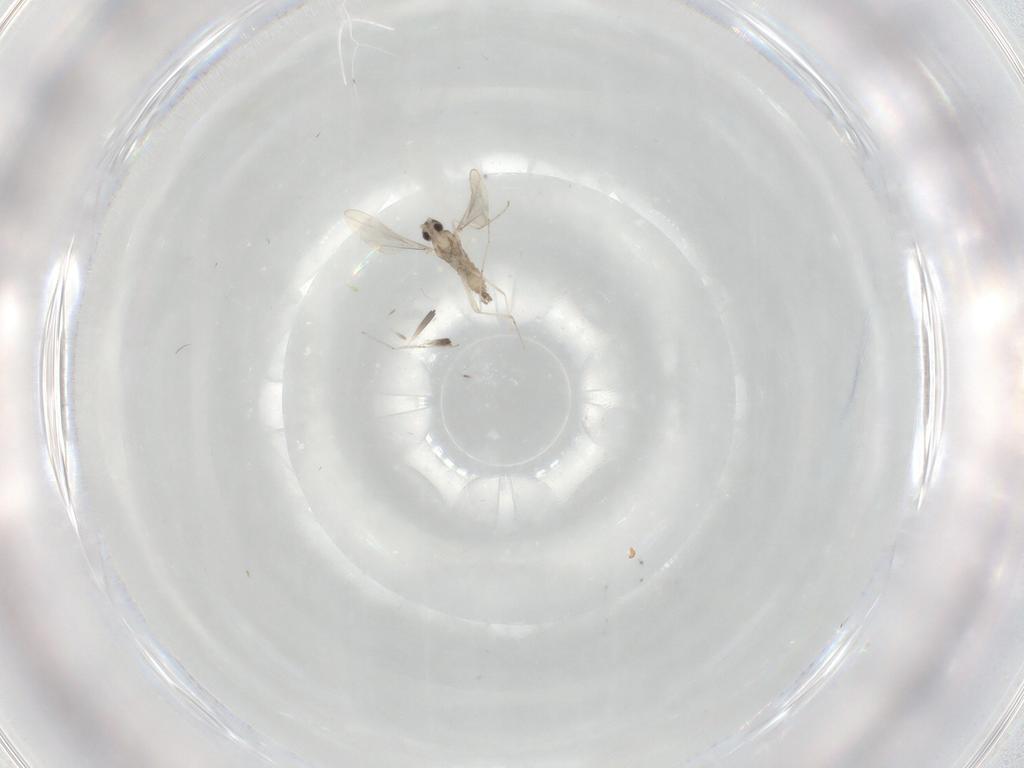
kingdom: Animalia
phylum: Arthropoda
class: Insecta
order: Diptera
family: Cecidomyiidae
